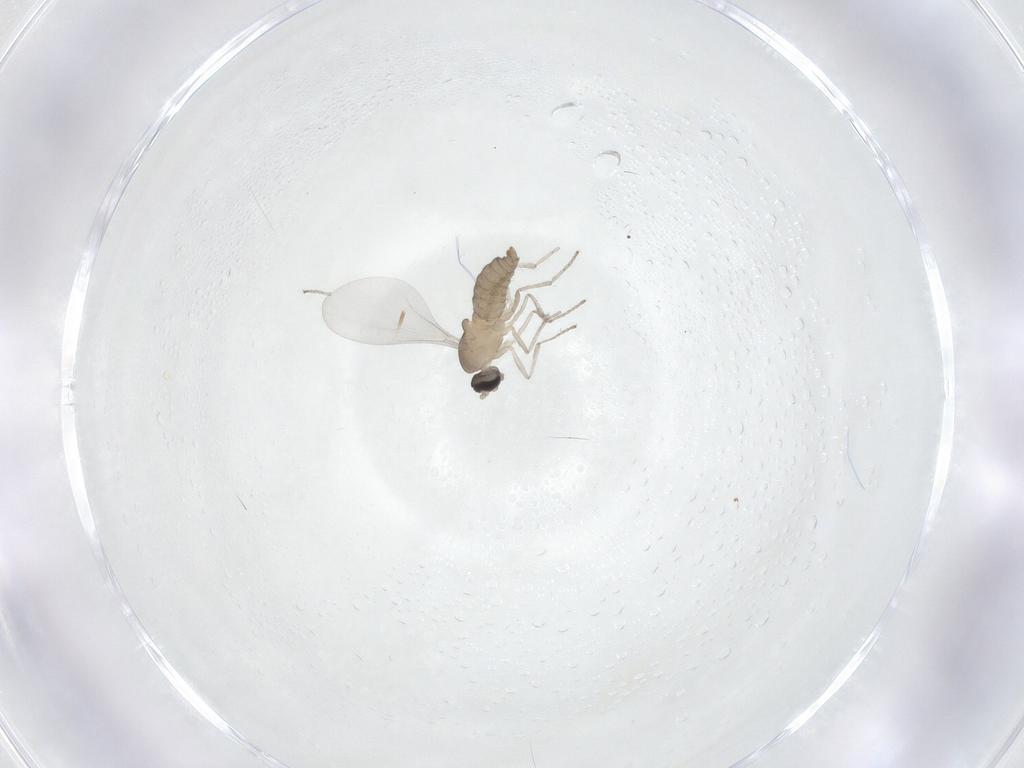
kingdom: Animalia
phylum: Arthropoda
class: Insecta
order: Diptera
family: Cecidomyiidae
